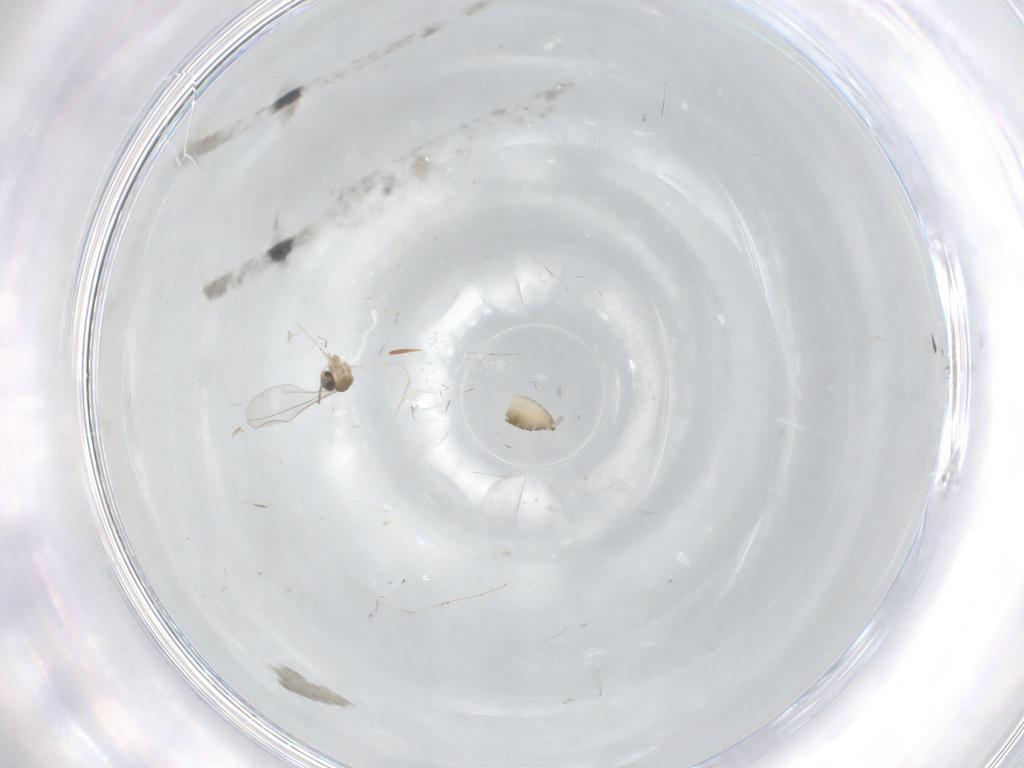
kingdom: Animalia
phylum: Arthropoda
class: Insecta
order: Diptera
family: Cecidomyiidae
